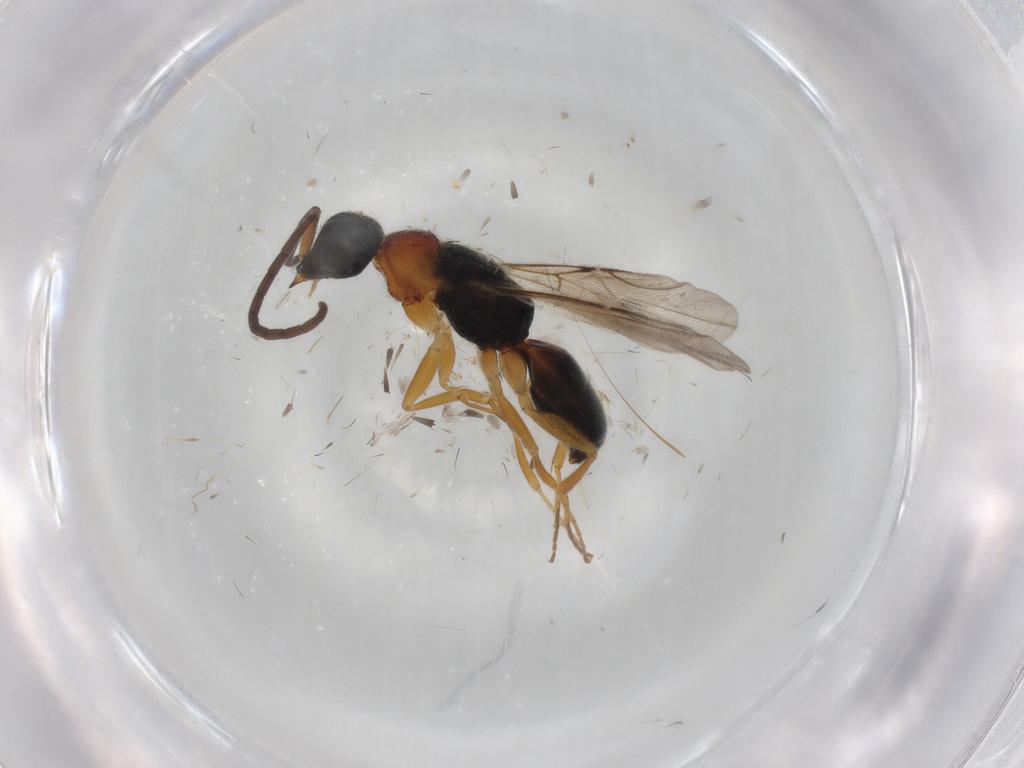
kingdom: Animalia
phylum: Arthropoda
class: Insecta
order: Hymenoptera
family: Chrysididae
